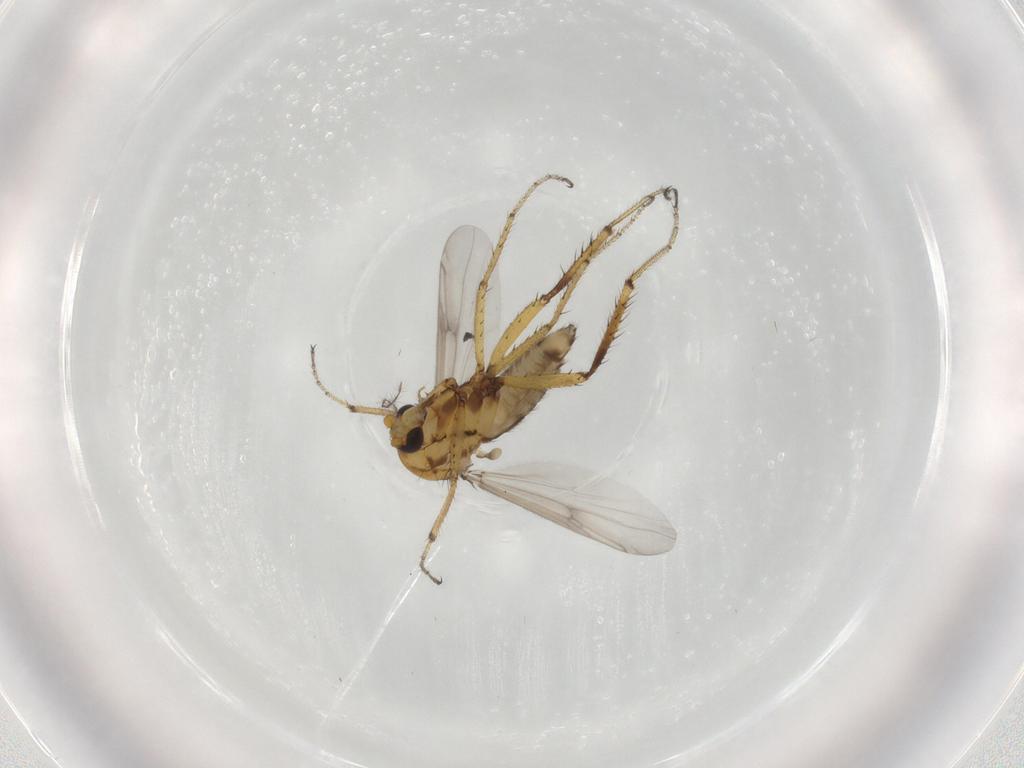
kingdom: Animalia
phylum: Arthropoda
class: Insecta
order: Diptera
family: Ceratopogonidae
